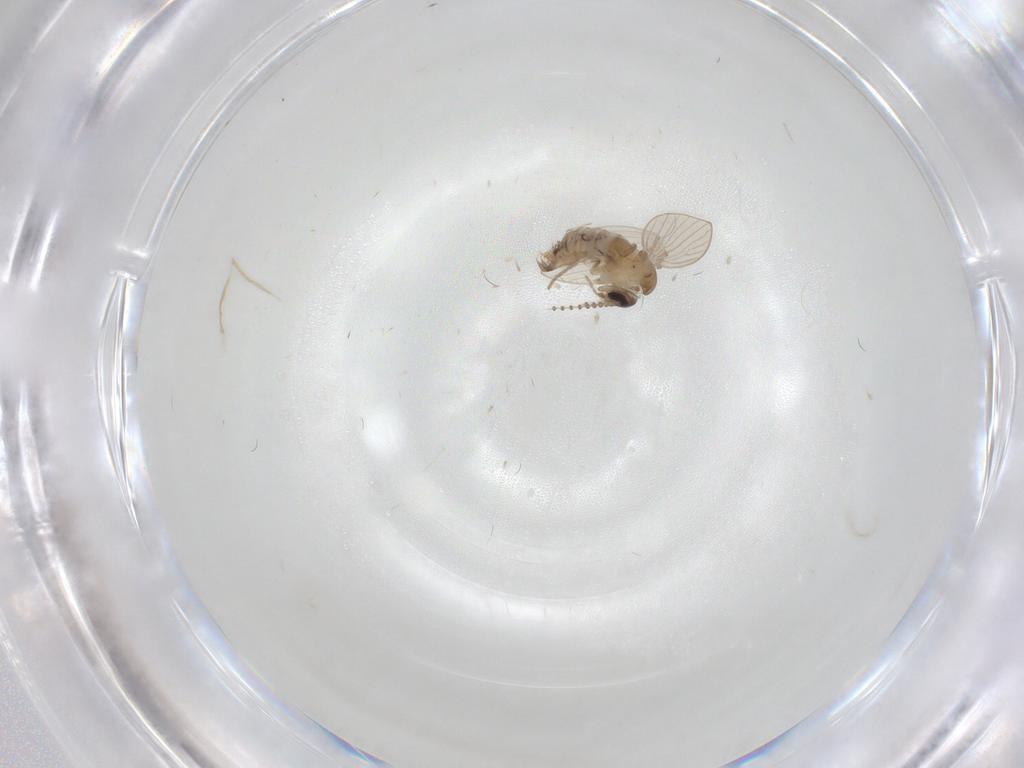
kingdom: Animalia
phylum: Arthropoda
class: Insecta
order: Diptera
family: Psychodidae
